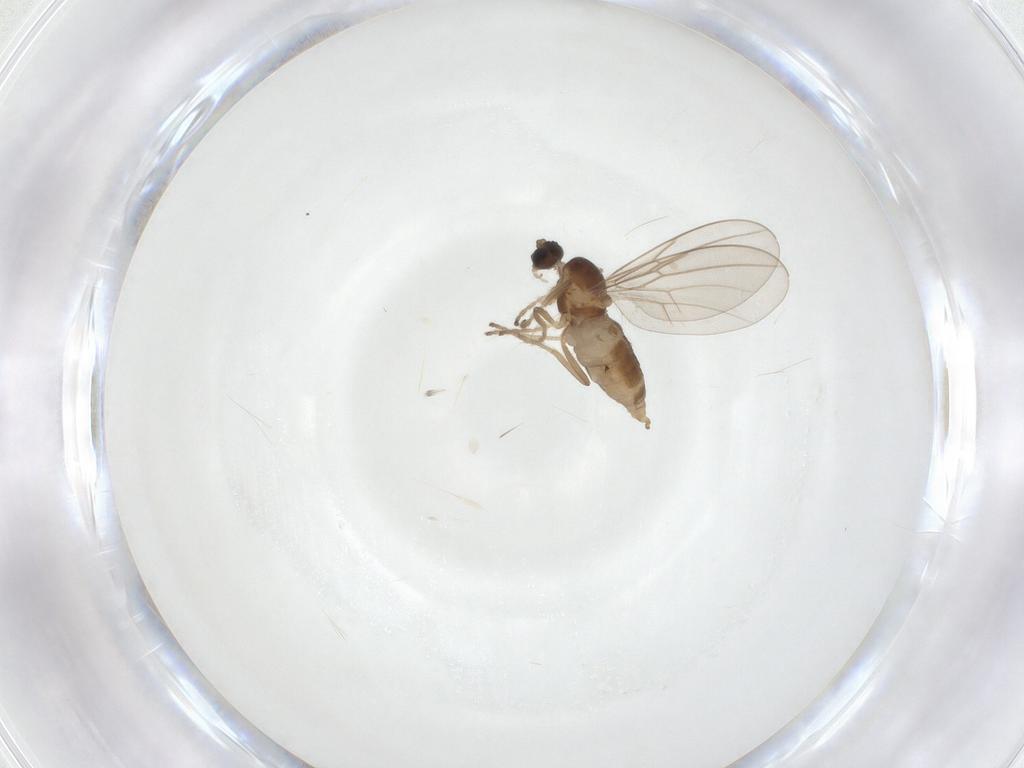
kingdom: Animalia
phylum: Arthropoda
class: Insecta
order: Diptera
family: Cecidomyiidae
